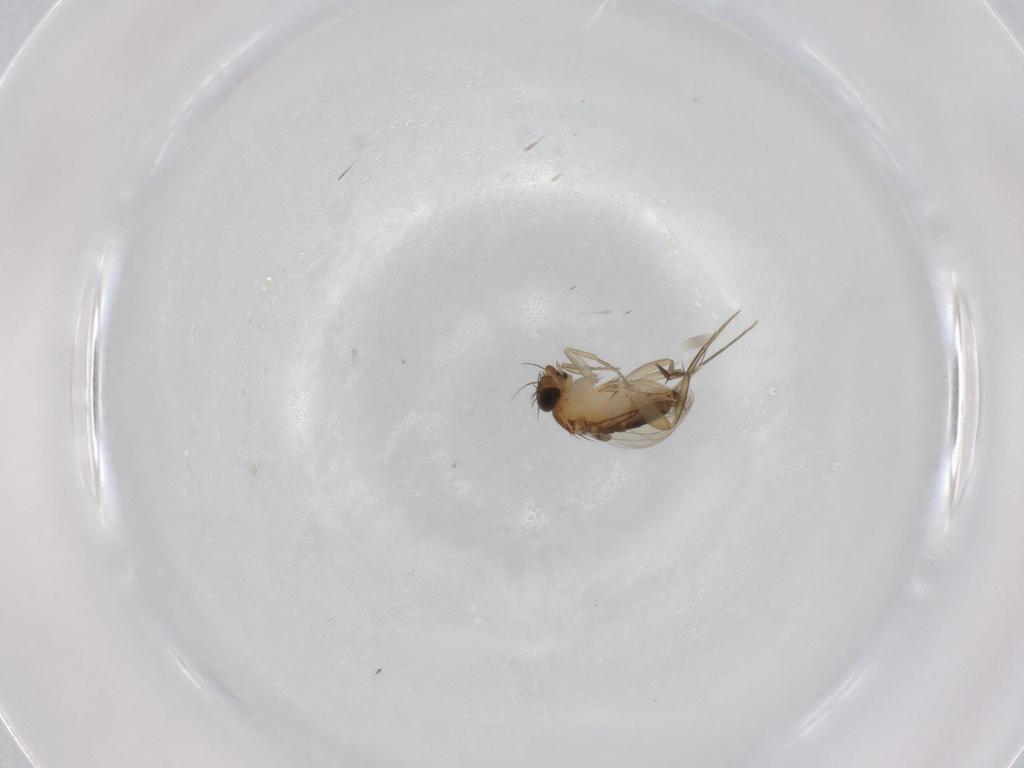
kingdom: Animalia
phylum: Arthropoda
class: Insecta
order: Diptera
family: Phoridae
